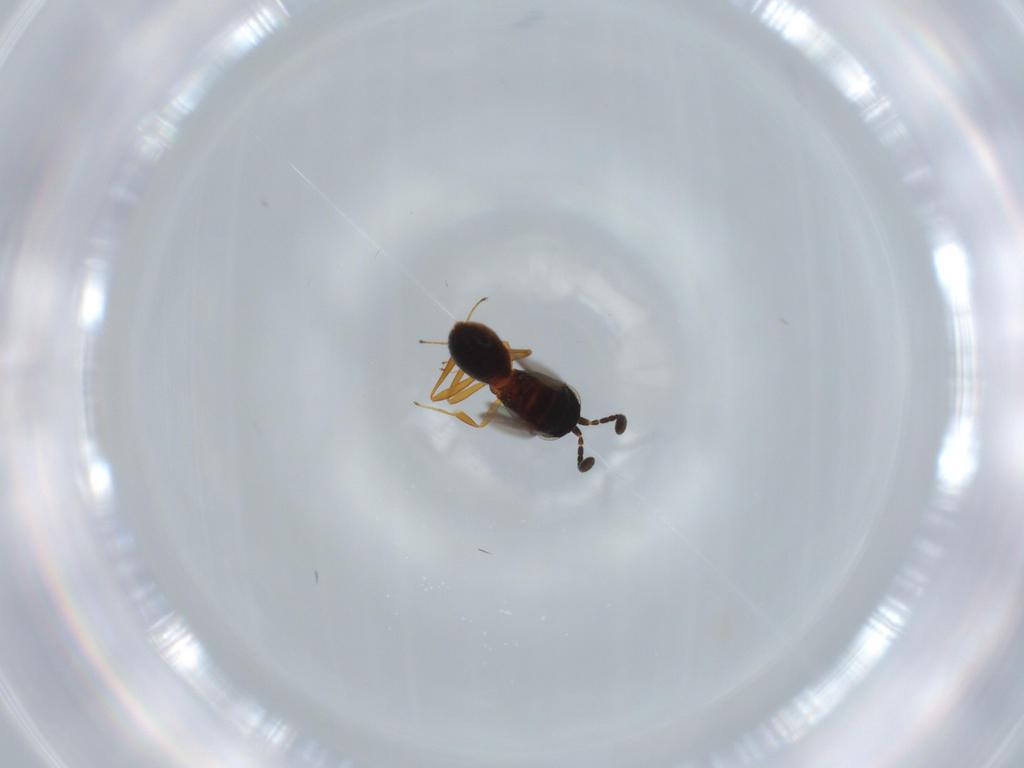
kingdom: Animalia
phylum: Arthropoda
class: Insecta
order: Hymenoptera
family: Scelionidae
